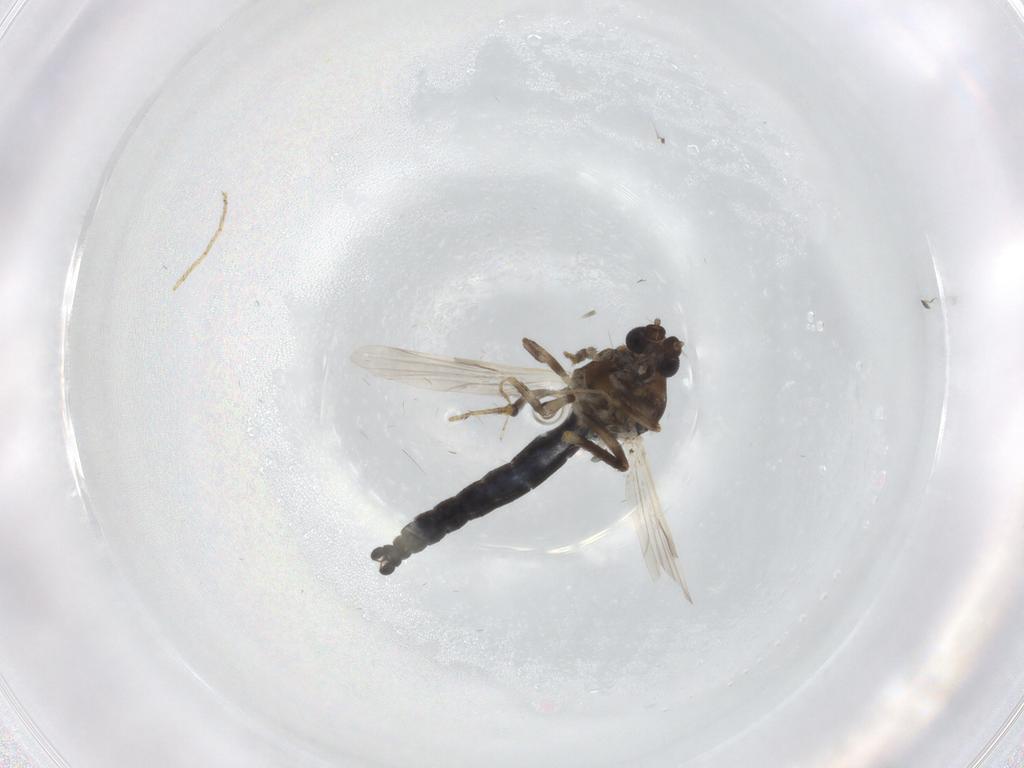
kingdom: Animalia
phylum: Arthropoda
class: Insecta
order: Diptera
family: Ceratopogonidae
